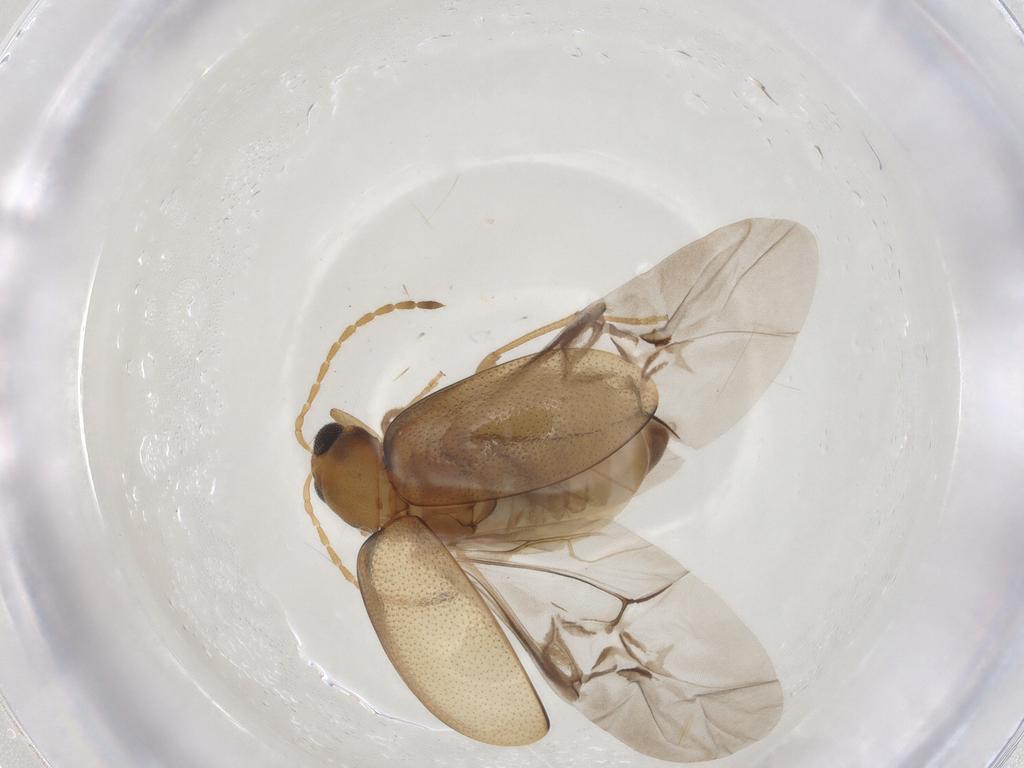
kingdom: Animalia
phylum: Arthropoda
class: Insecta
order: Coleoptera
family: Chrysomelidae
